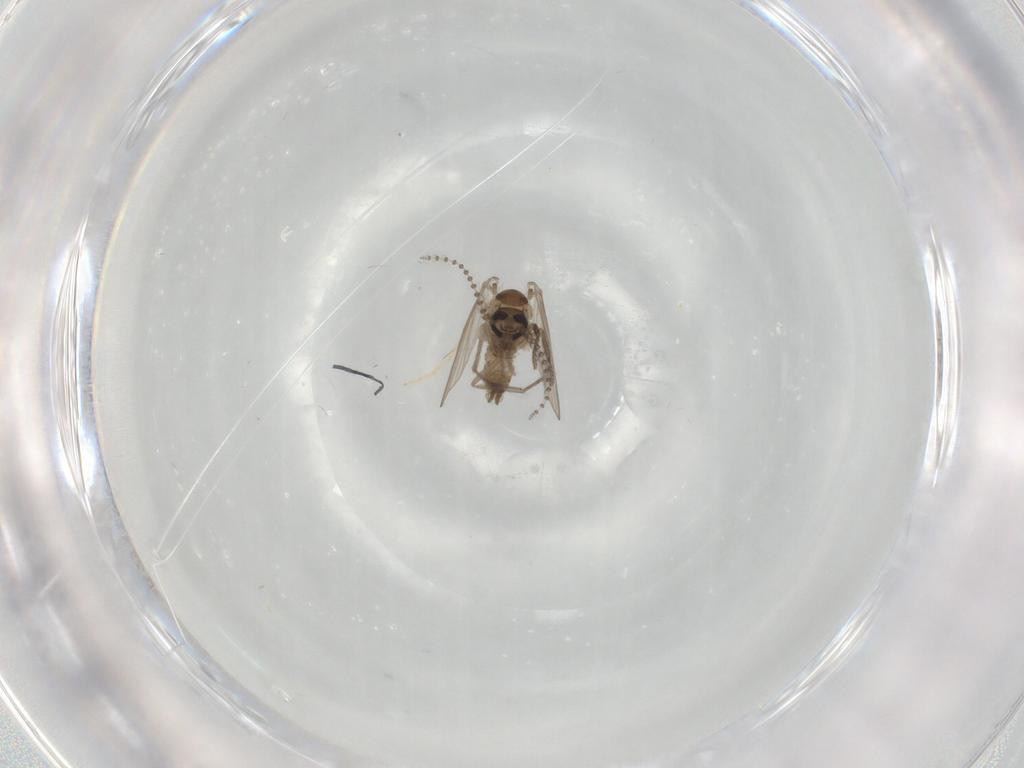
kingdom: Animalia
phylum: Arthropoda
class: Insecta
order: Diptera
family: Psychodidae
